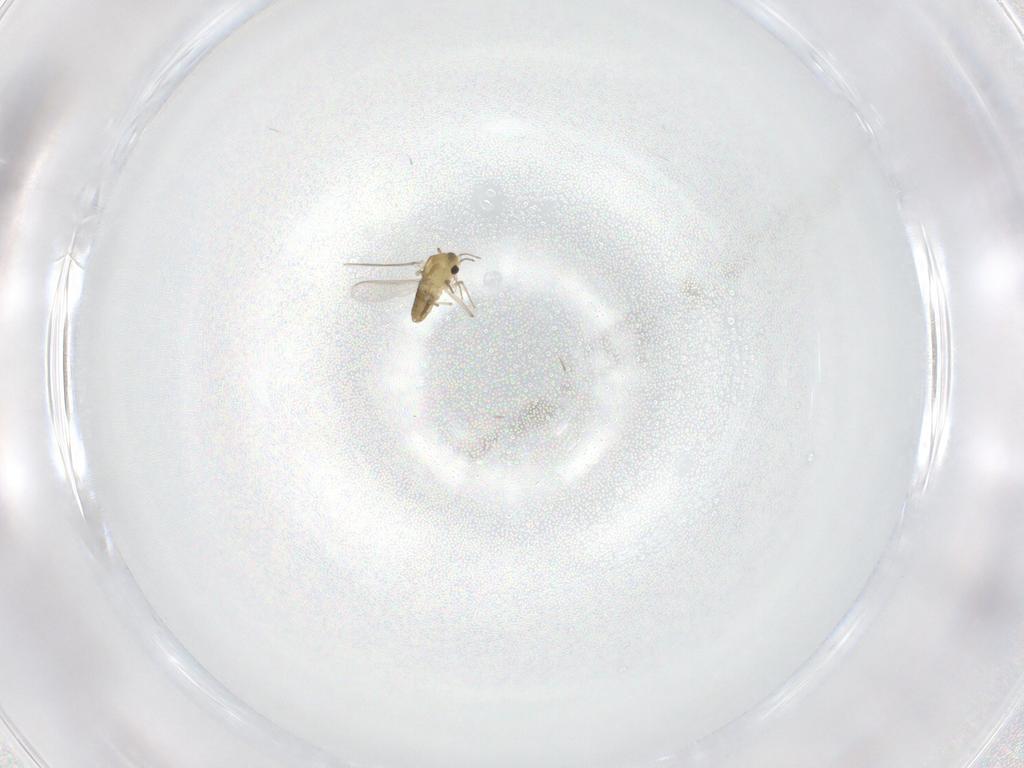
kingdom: Animalia
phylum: Arthropoda
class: Insecta
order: Diptera
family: Chironomidae
